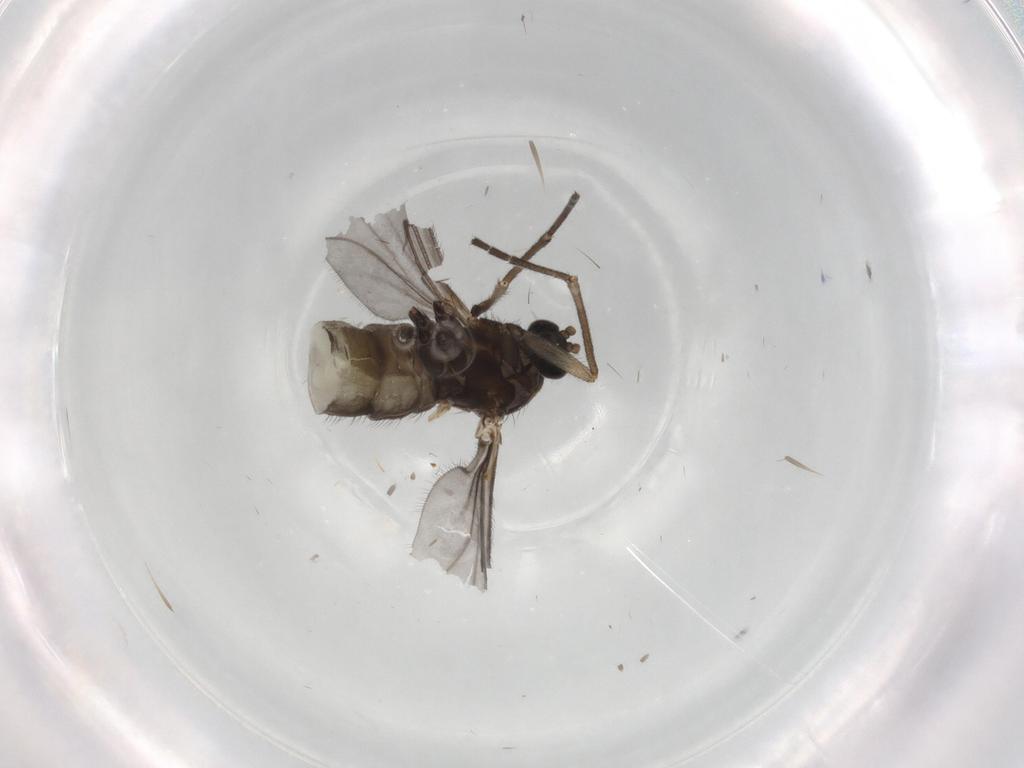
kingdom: Animalia
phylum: Arthropoda
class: Insecta
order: Diptera
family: Sciaridae
